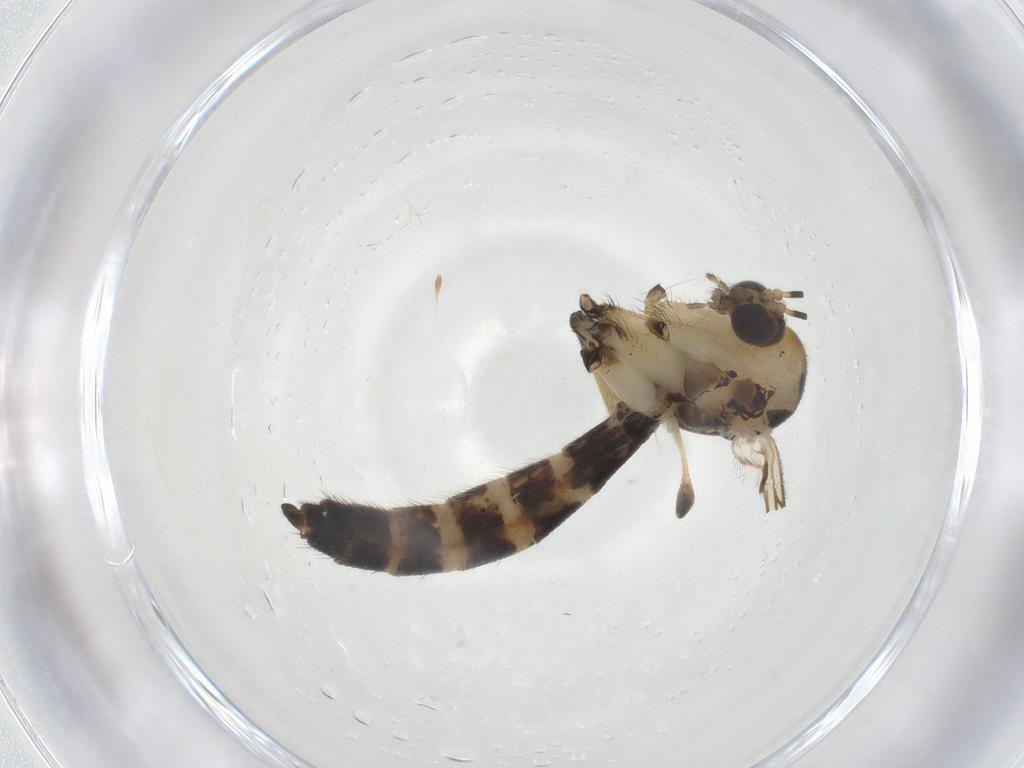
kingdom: Animalia
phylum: Arthropoda
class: Insecta
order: Diptera
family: Mycetophilidae
